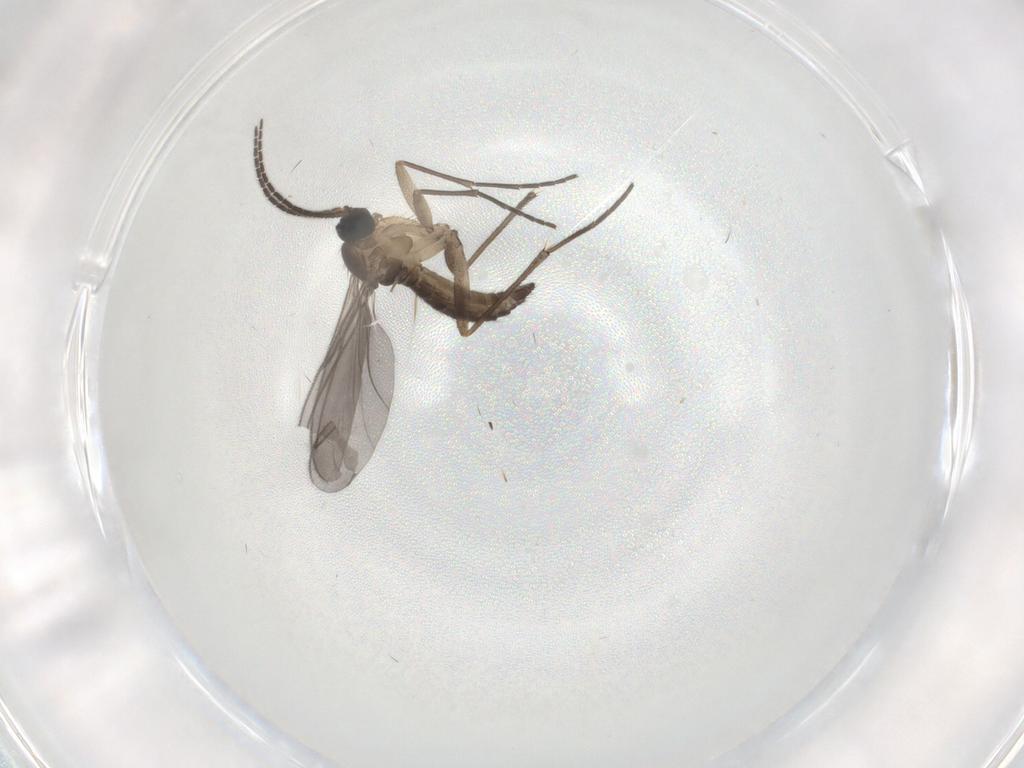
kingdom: Animalia
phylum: Arthropoda
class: Insecta
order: Diptera
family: Sciaridae
